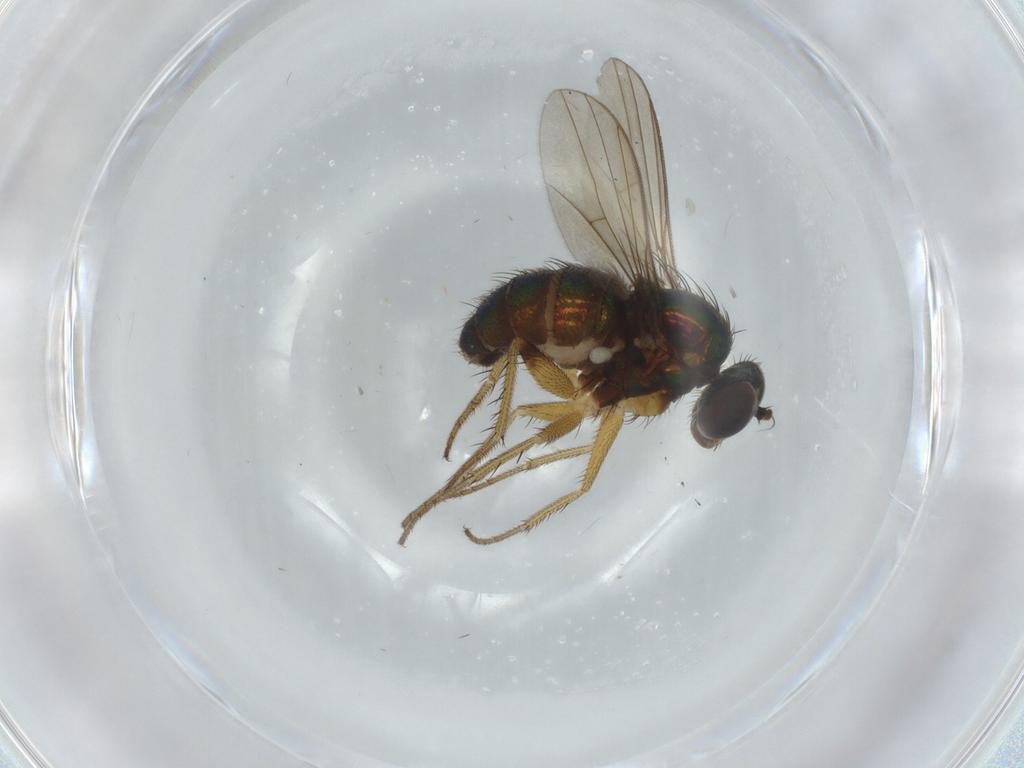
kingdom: Animalia
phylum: Arthropoda
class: Insecta
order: Diptera
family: Dolichopodidae
